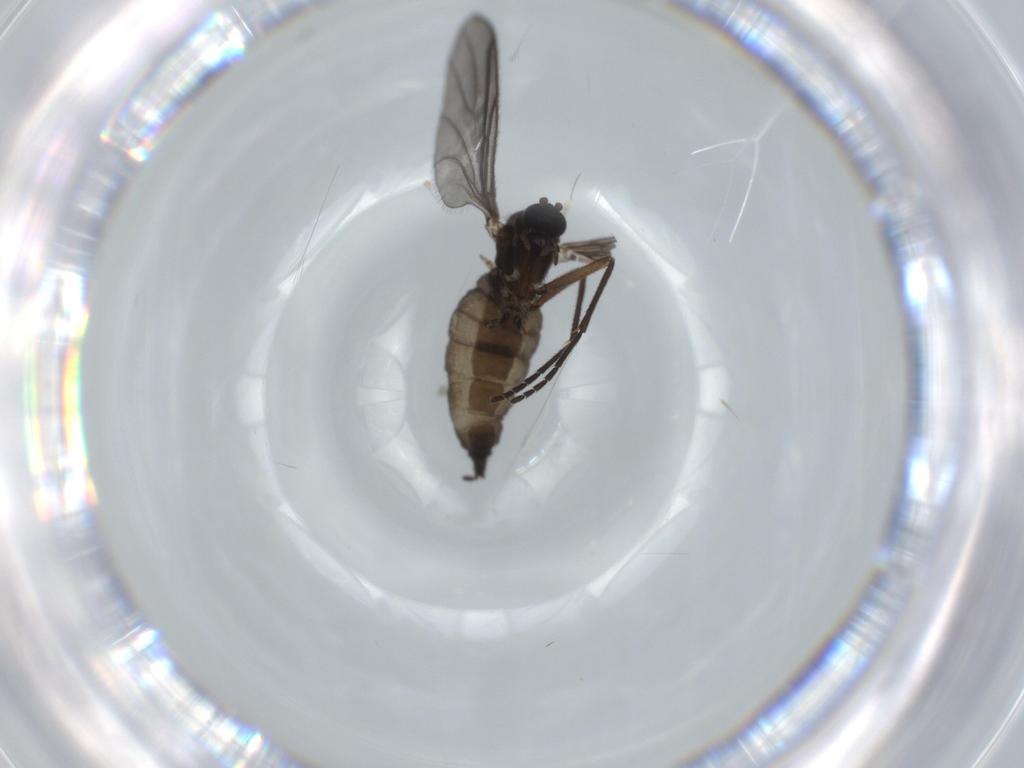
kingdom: Animalia
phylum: Arthropoda
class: Insecta
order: Diptera
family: Sciaridae
